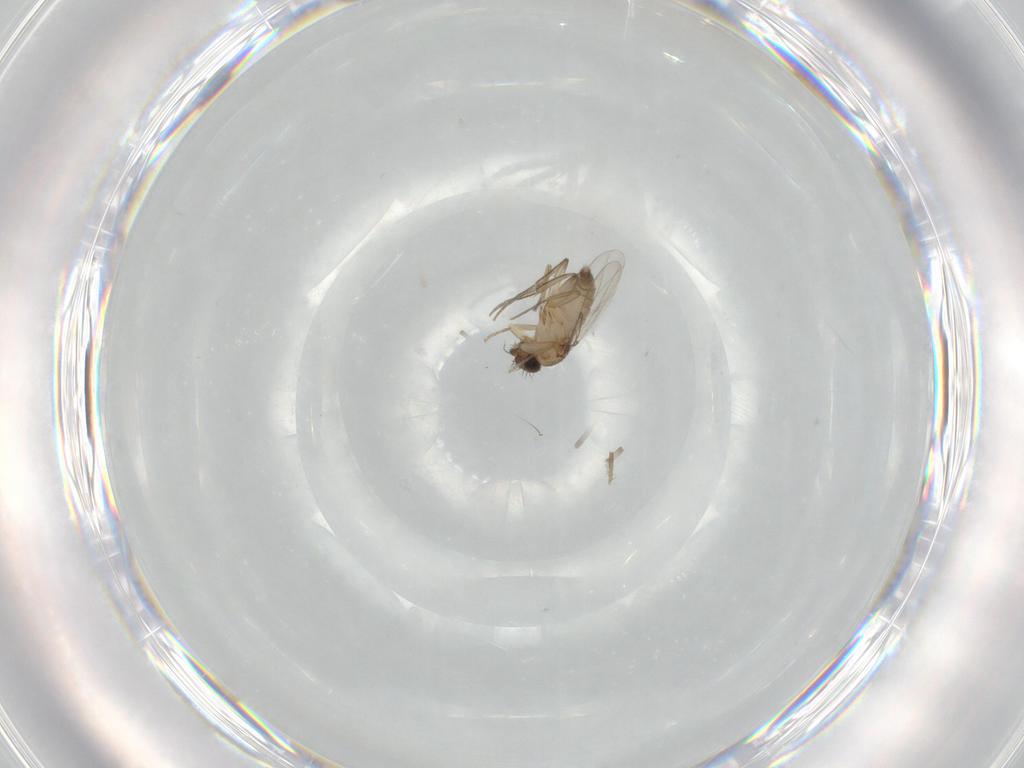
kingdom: Animalia
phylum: Arthropoda
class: Insecta
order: Diptera
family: Phoridae
